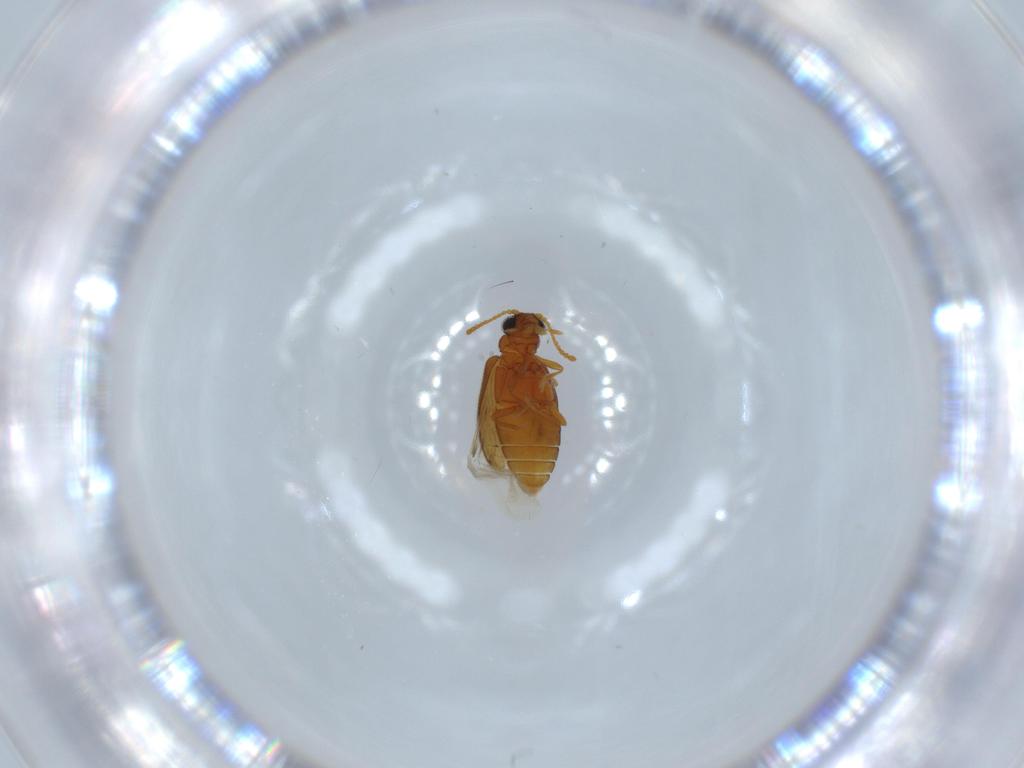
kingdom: Animalia
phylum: Arthropoda
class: Insecta
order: Coleoptera
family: Aderidae
